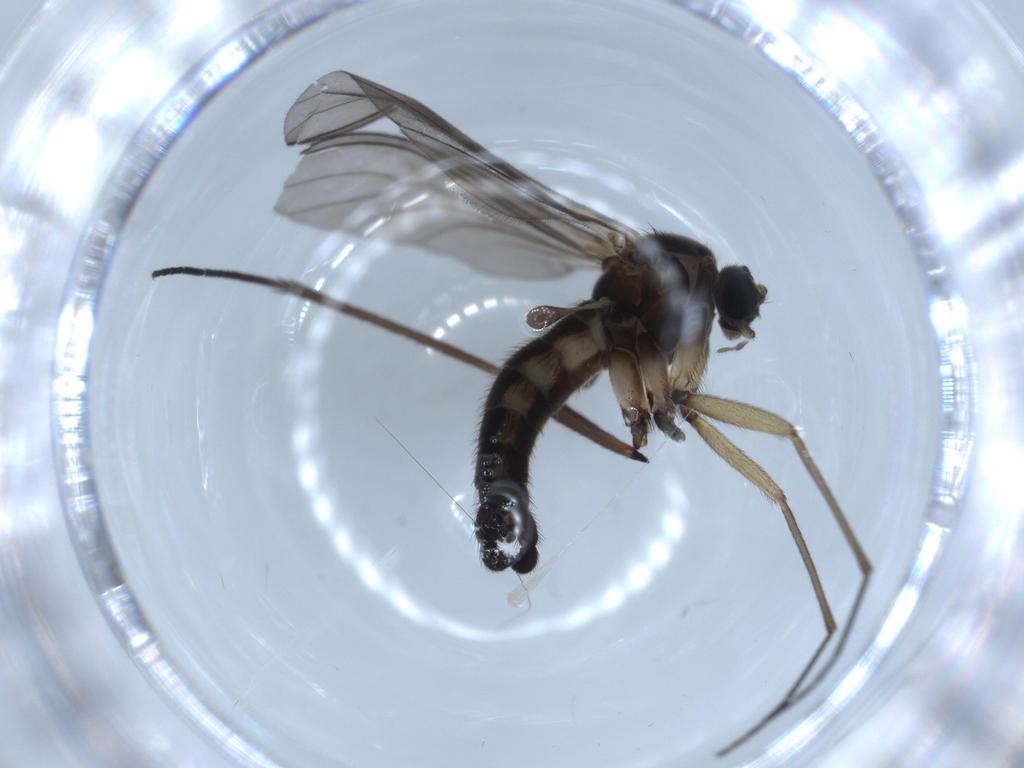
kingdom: Animalia
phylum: Arthropoda
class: Insecta
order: Diptera
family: Sciaridae
